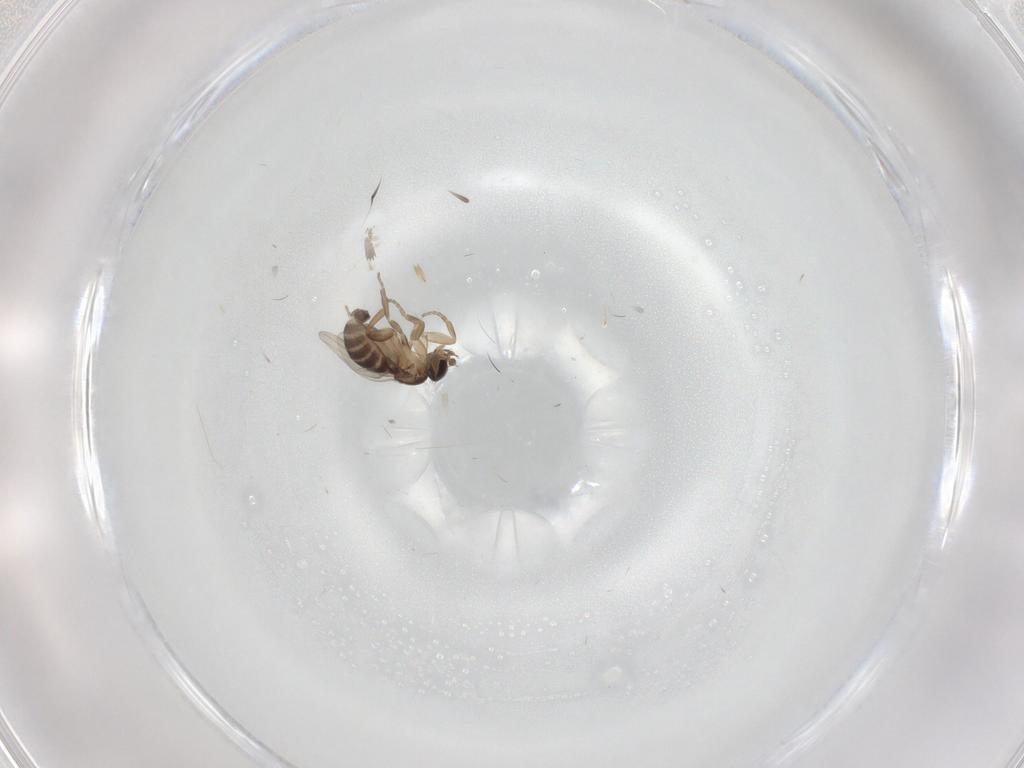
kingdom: Animalia
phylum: Arthropoda
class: Insecta
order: Diptera
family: Phoridae
